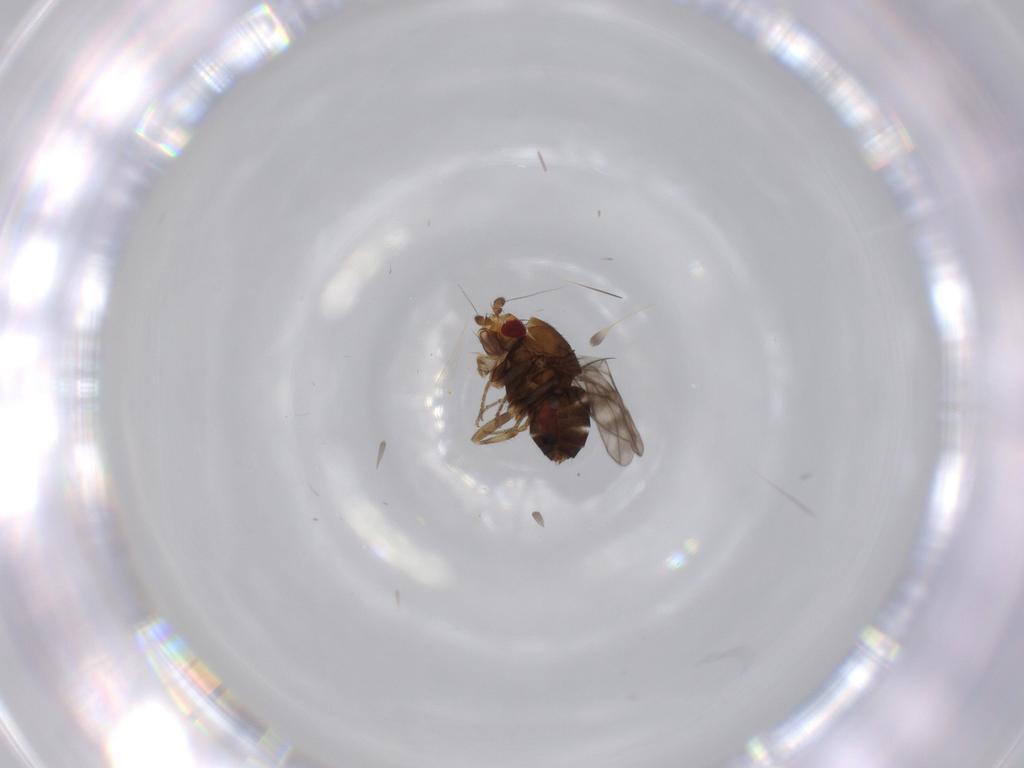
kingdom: Animalia
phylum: Arthropoda
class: Insecta
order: Diptera
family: Sphaeroceridae
